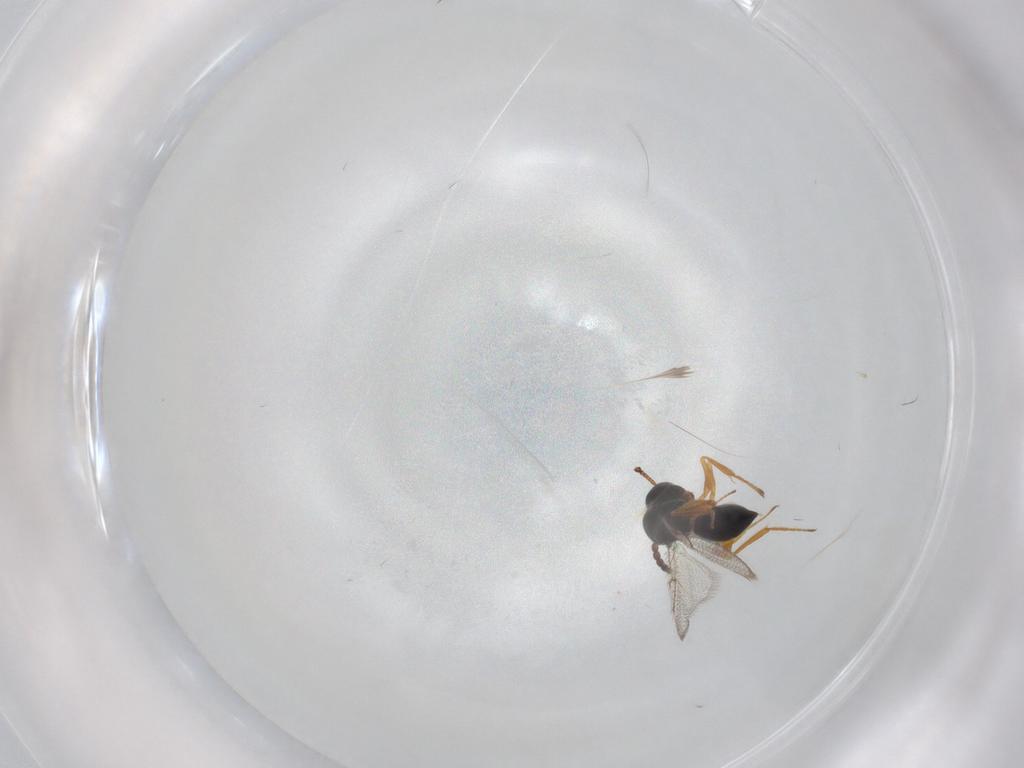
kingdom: Animalia
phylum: Arthropoda
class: Insecta
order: Hymenoptera
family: Figitidae
